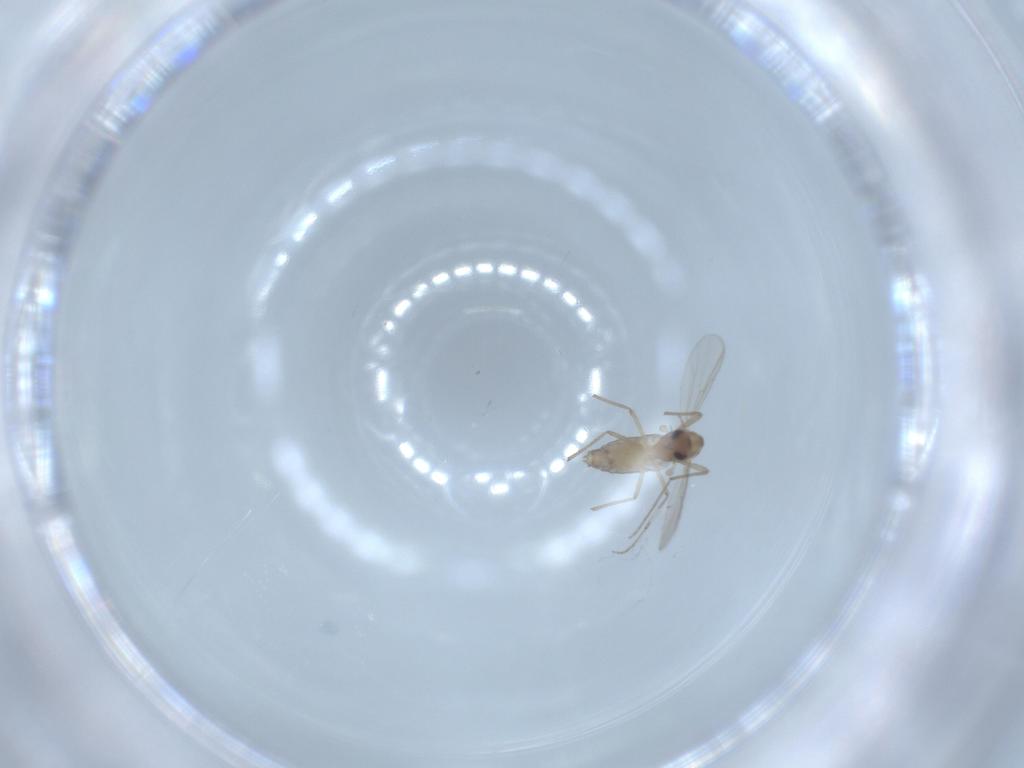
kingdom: Animalia
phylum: Arthropoda
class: Insecta
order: Diptera
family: Chironomidae
